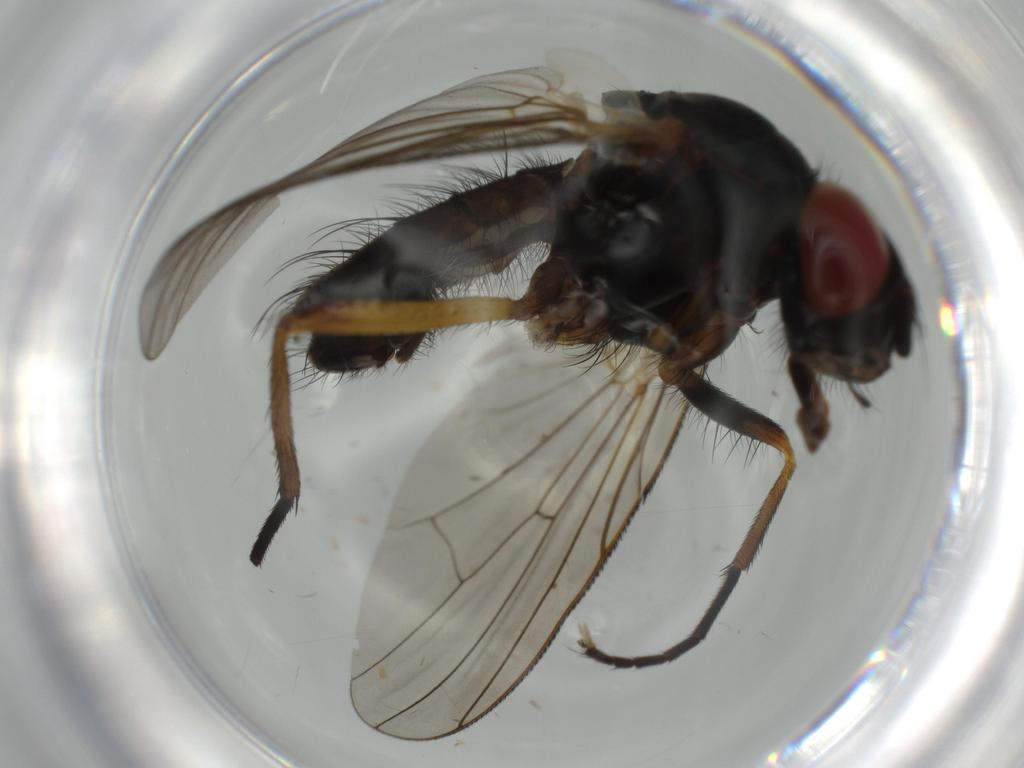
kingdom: Animalia
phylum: Arthropoda
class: Insecta
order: Diptera
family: Anthomyiidae
